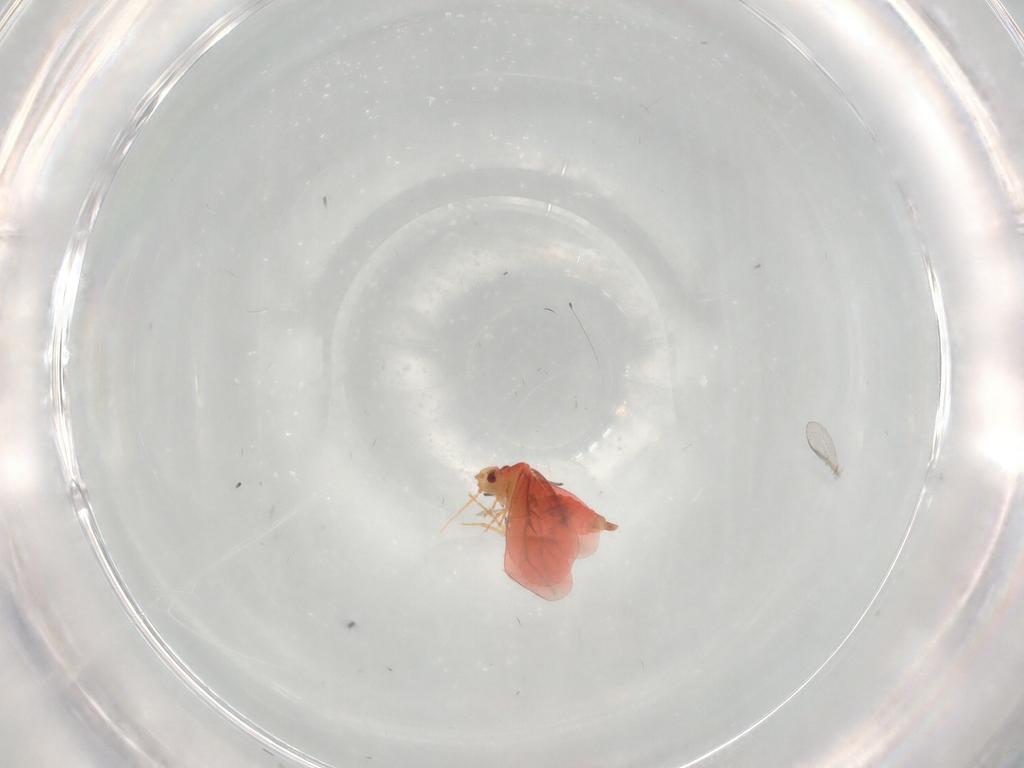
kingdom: Animalia
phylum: Arthropoda
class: Insecta
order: Hemiptera
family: Aleyrodidae
